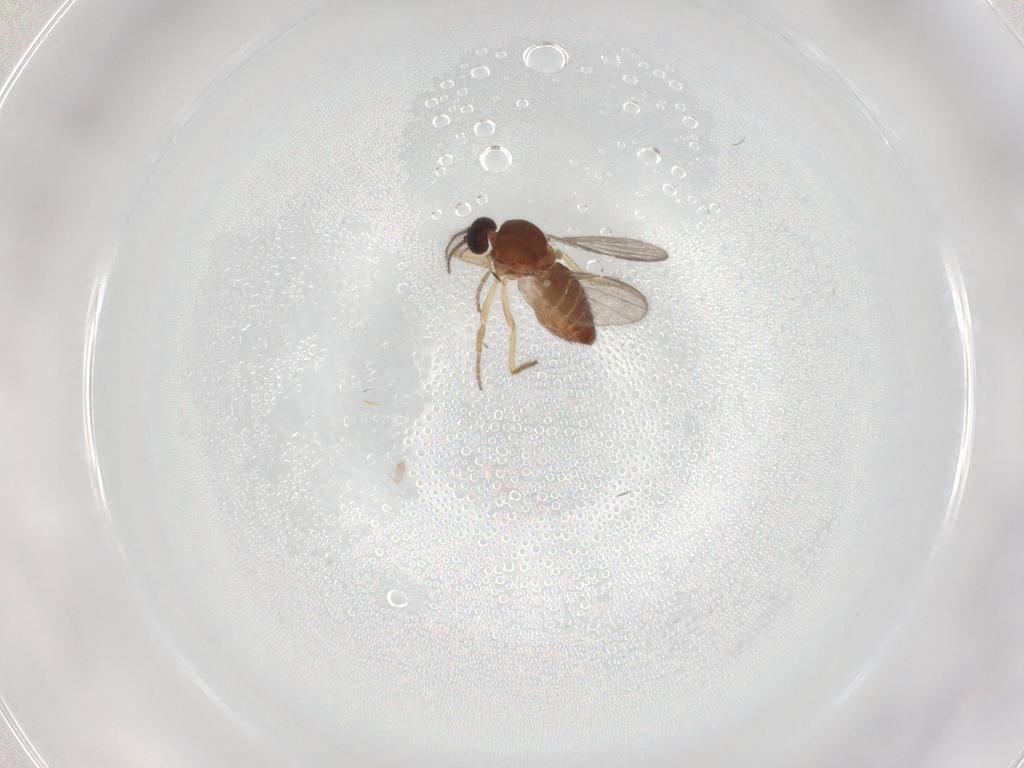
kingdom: Animalia
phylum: Arthropoda
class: Insecta
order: Diptera
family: Ceratopogonidae
